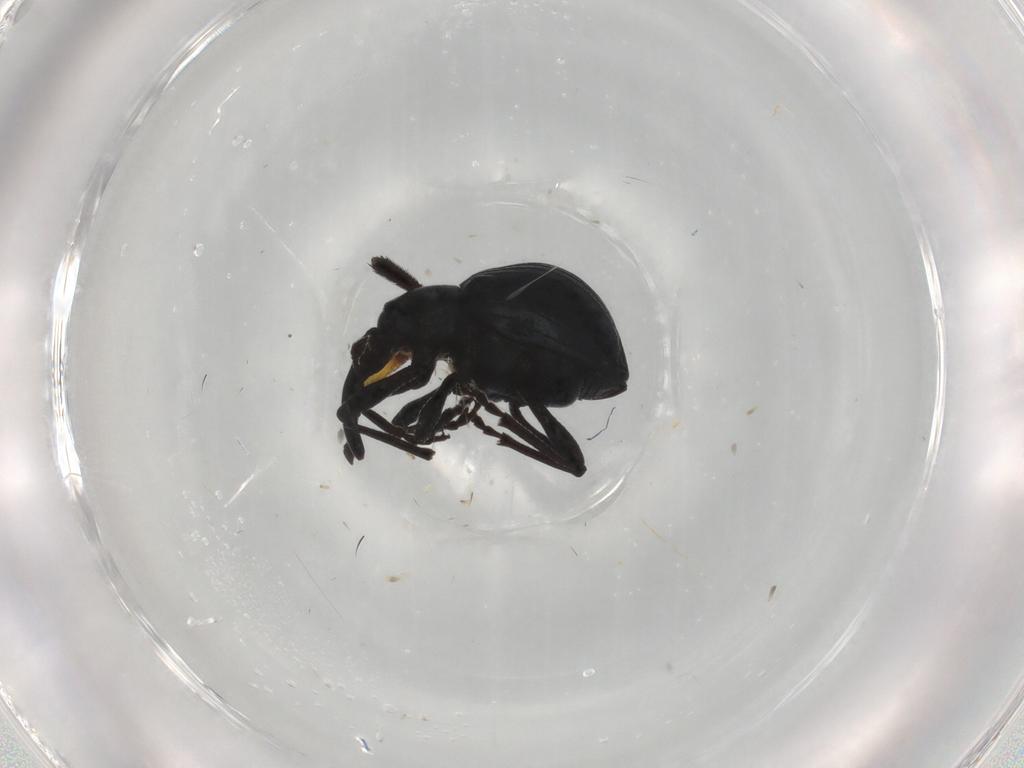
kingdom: Animalia
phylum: Arthropoda
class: Insecta
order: Coleoptera
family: Apionidae
